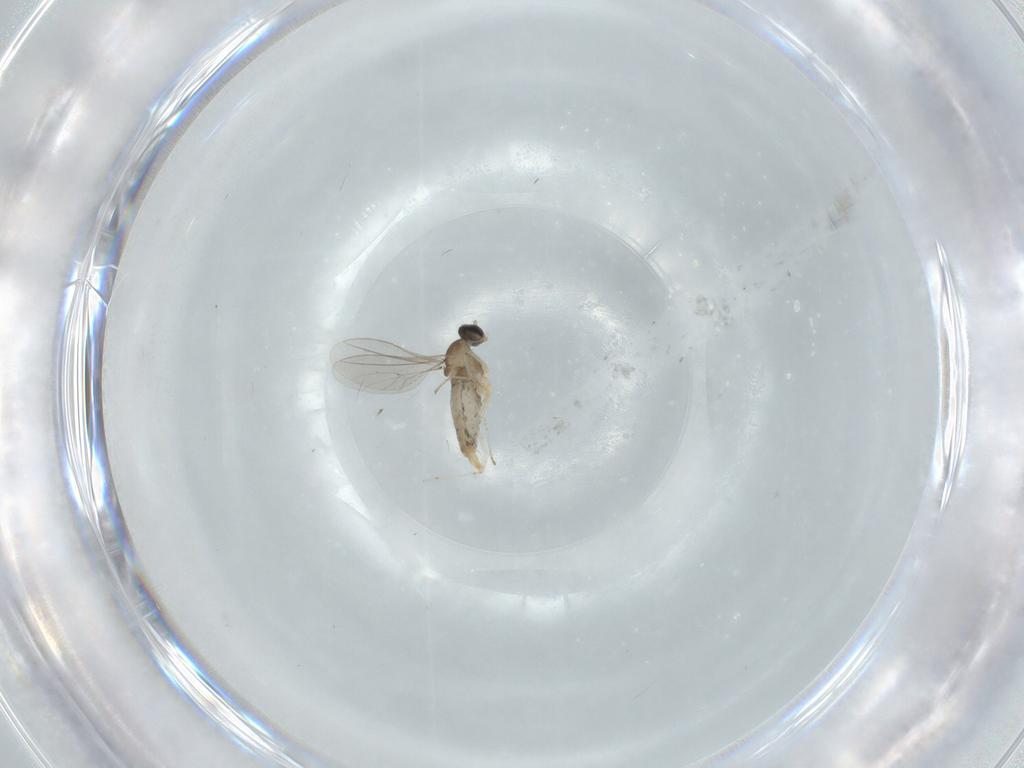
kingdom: Animalia
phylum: Arthropoda
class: Insecta
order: Diptera
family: Cecidomyiidae
